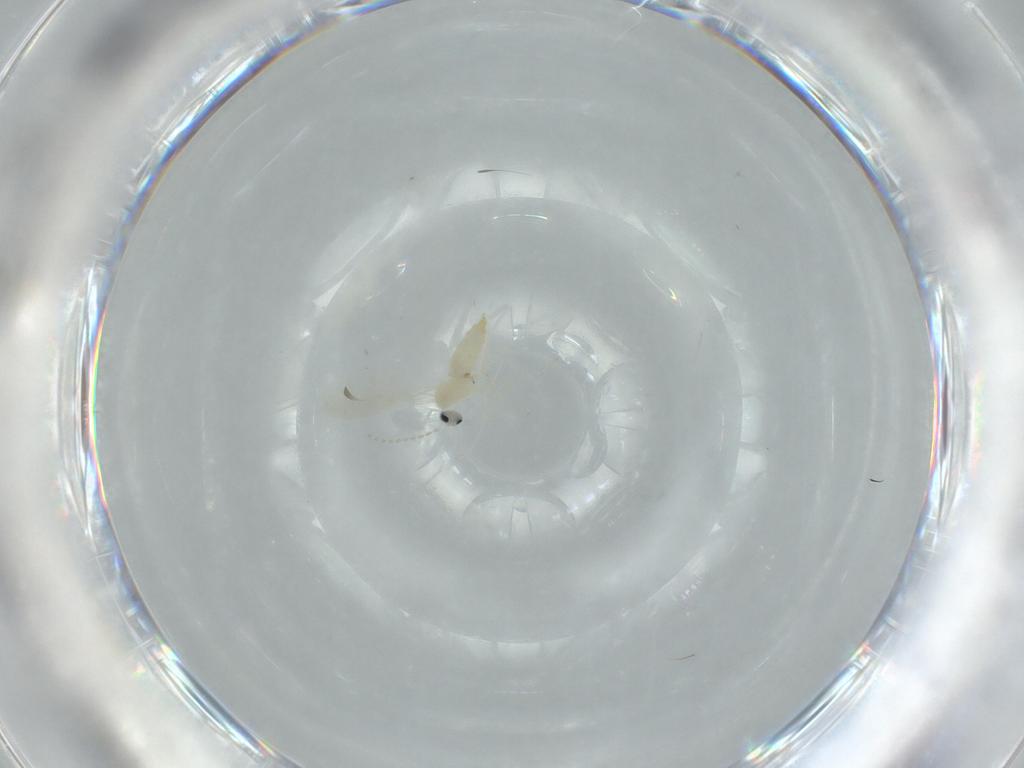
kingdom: Animalia
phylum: Arthropoda
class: Insecta
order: Diptera
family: Cecidomyiidae
